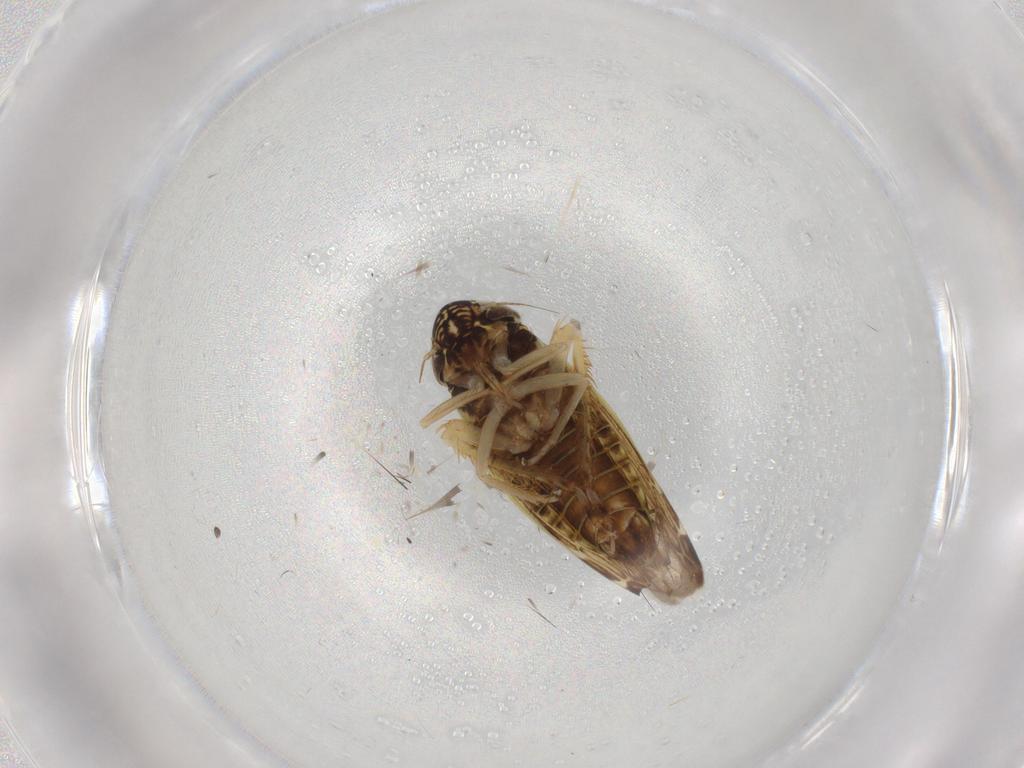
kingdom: Animalia
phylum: Arthropoda
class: Insecta
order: Hemiptera
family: Cicadellidae
